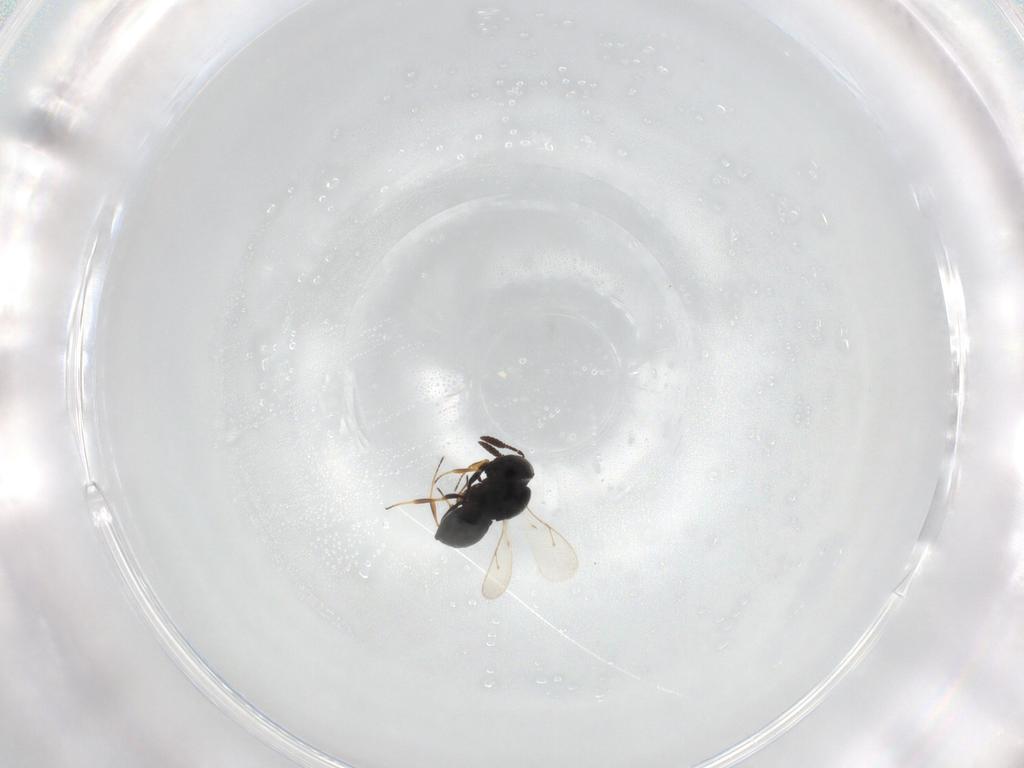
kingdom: Animalia
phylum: Arthropoda
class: Insecta
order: Hymenoptera
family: Scelionidae
